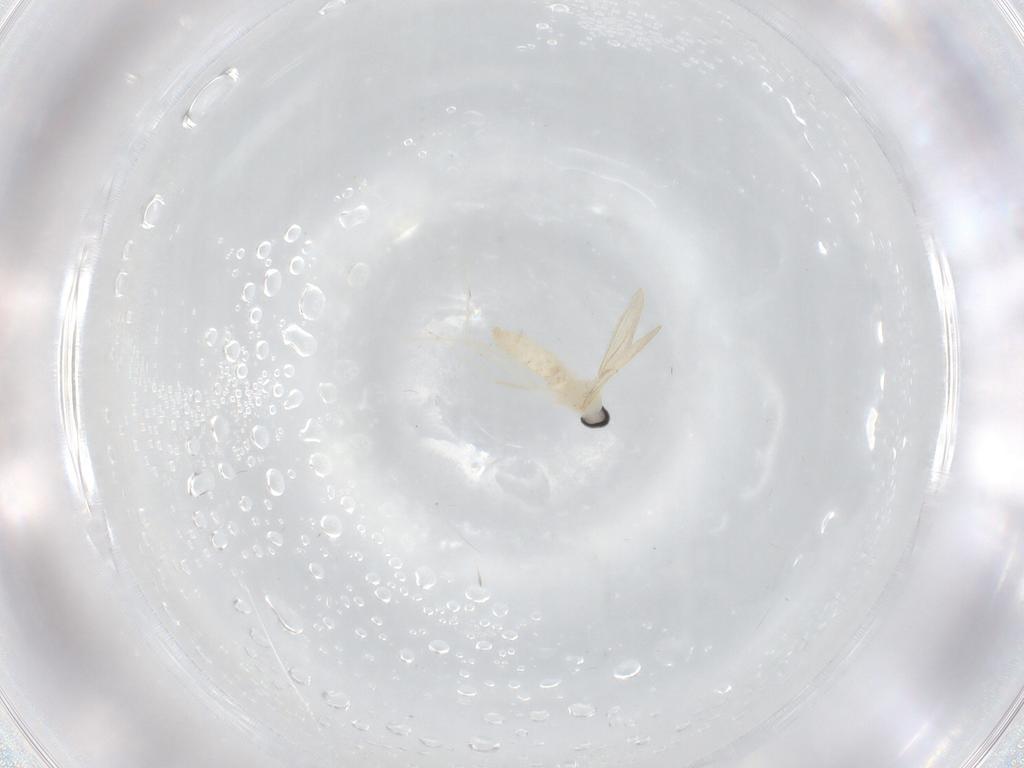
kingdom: Animalia
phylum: Arthropoda
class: Insecta
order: Diptera
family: Cecidomyiidae
